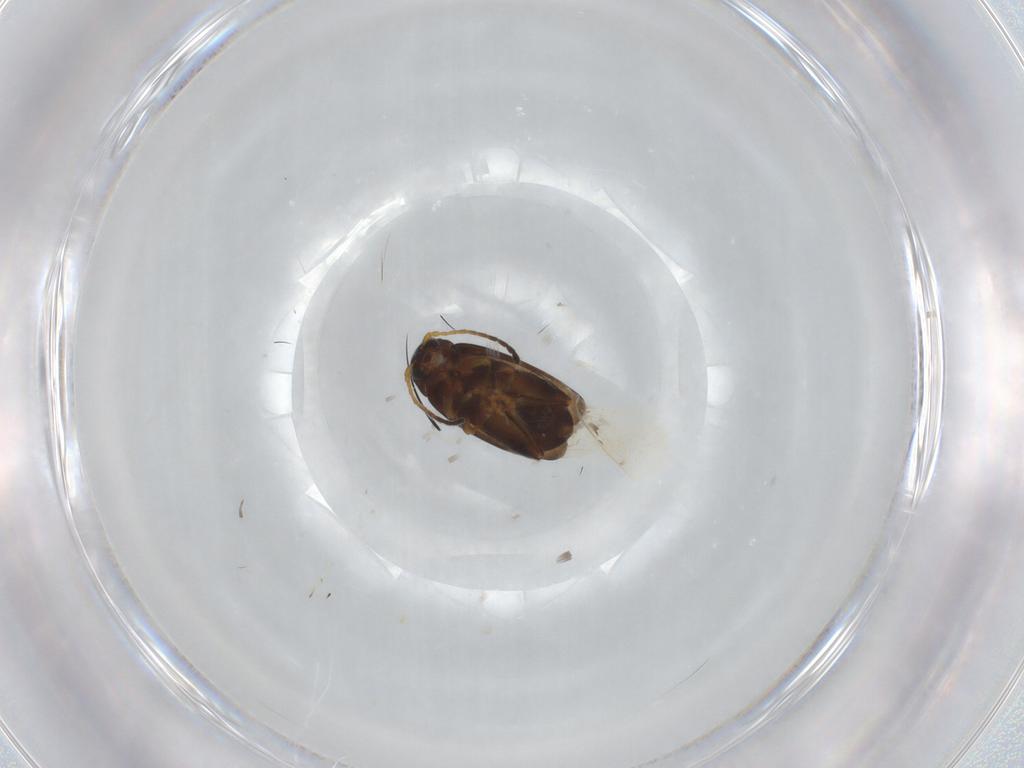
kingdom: Animalia
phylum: Arthropoda
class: Insecta
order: Coleoptera
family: Chrysomelidae
